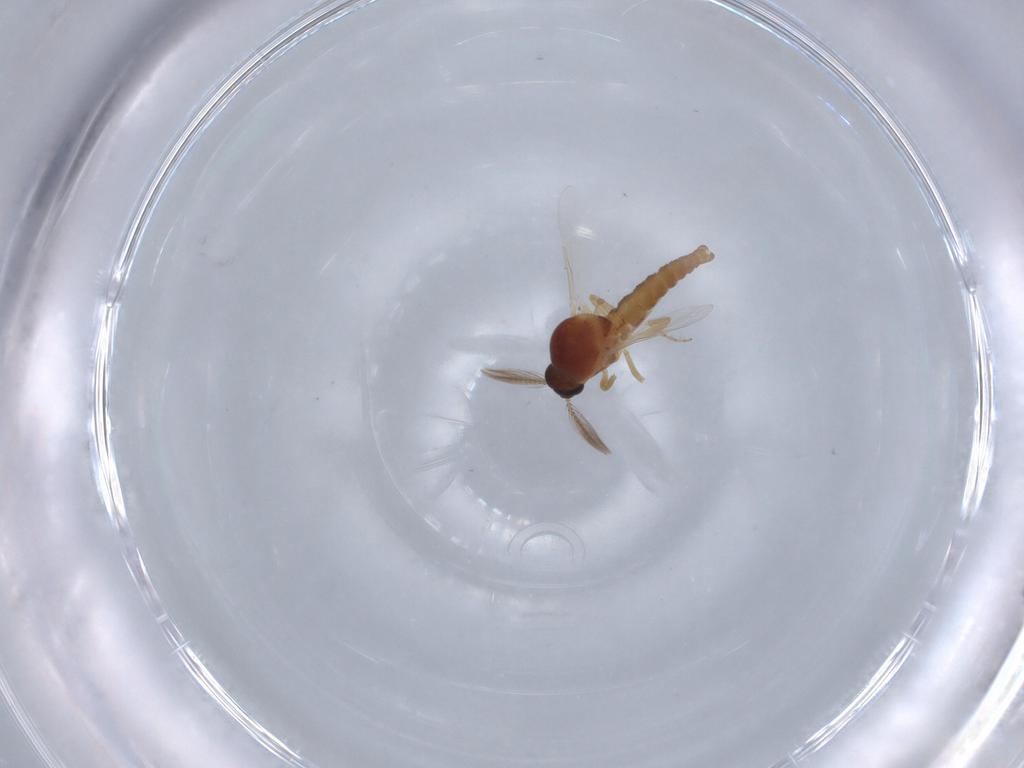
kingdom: Animalia
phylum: Arthropoda
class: Insecta
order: Diptera
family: Ceratopogonidae
